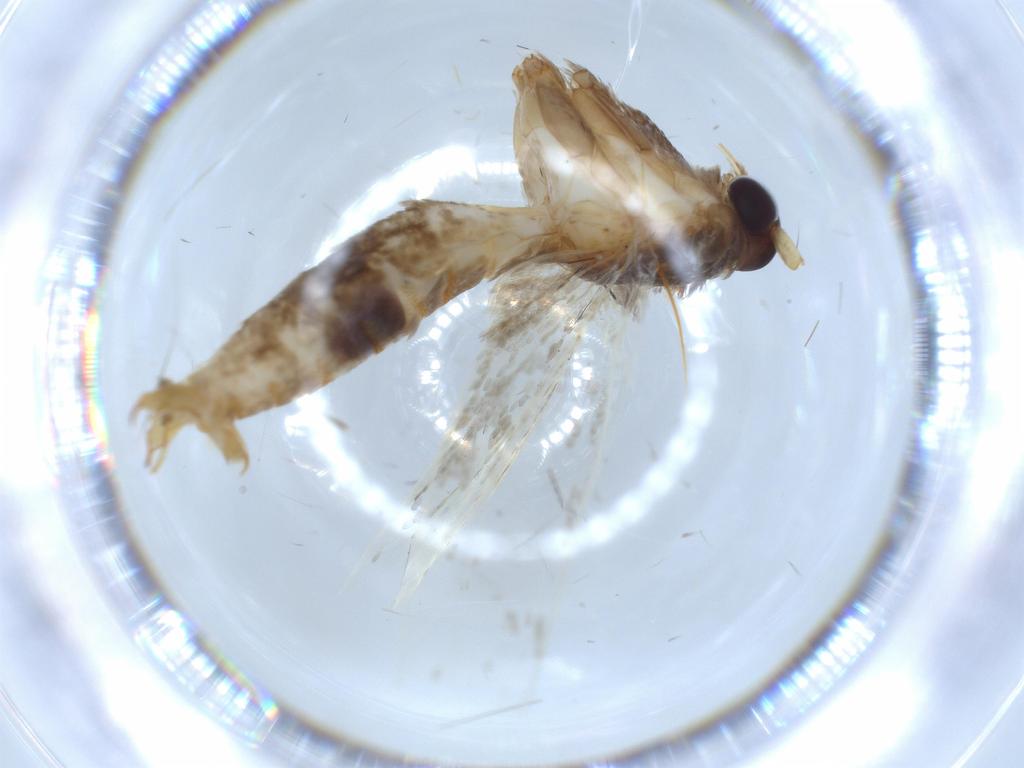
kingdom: Animalia
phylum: Arthropoda
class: Insecta
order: Lepidoptera
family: Blastobasidae
